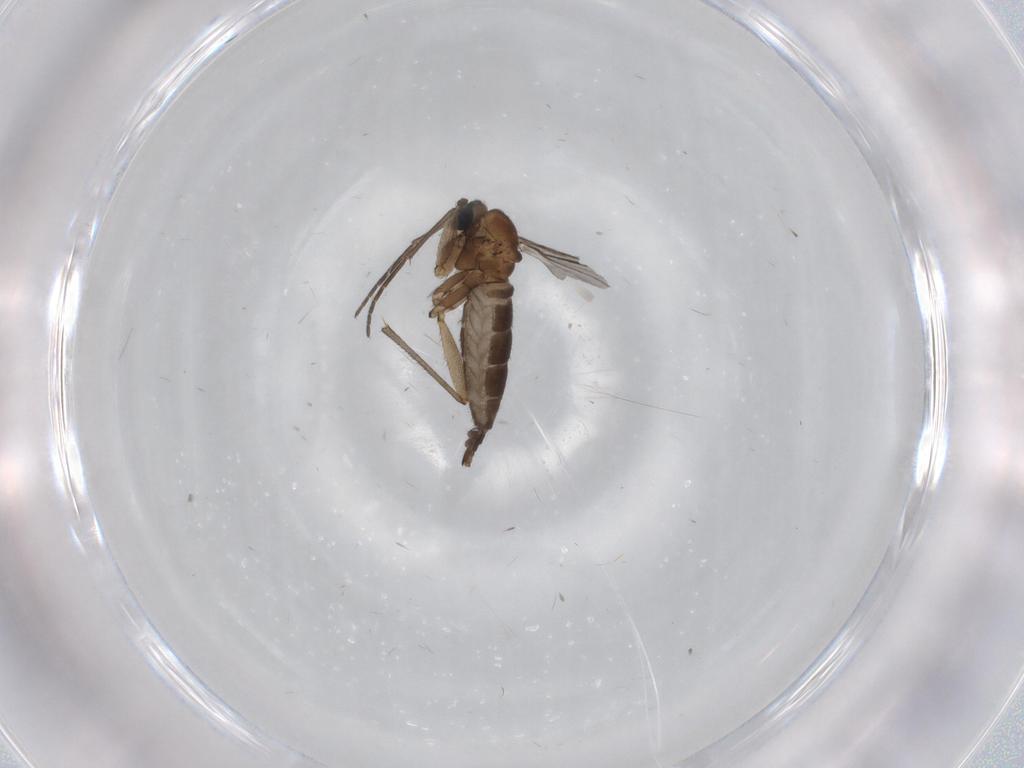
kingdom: Animalia
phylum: Arthropoda
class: Insecta
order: Diptera
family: Sciaridae
